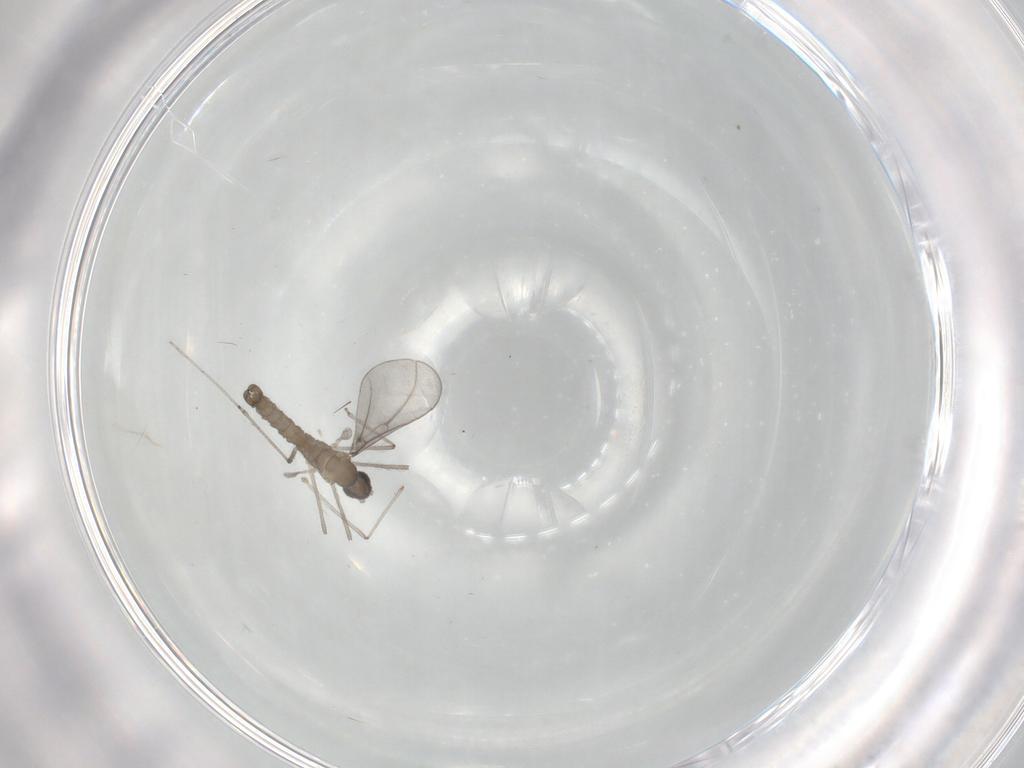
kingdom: Animalia
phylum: Arthropoda
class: Insecta
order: Diptera
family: Cecidomyiidae
